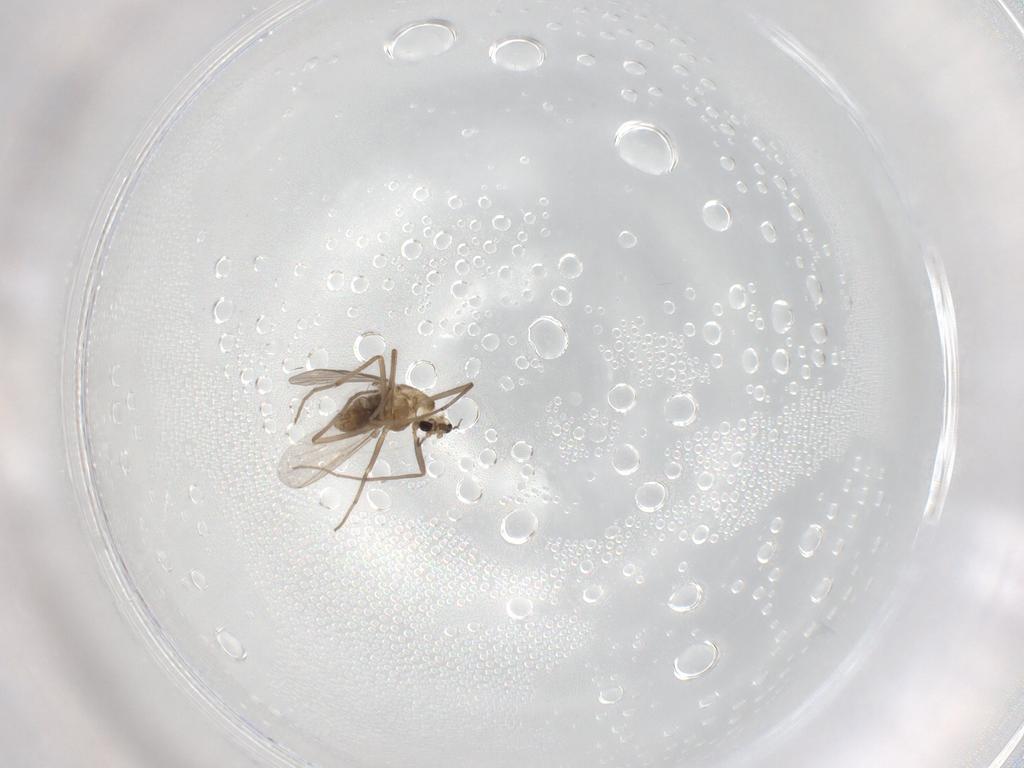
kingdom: Animalia
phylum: Arthropoda
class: Insecta
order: Diptera
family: Chironomidae
